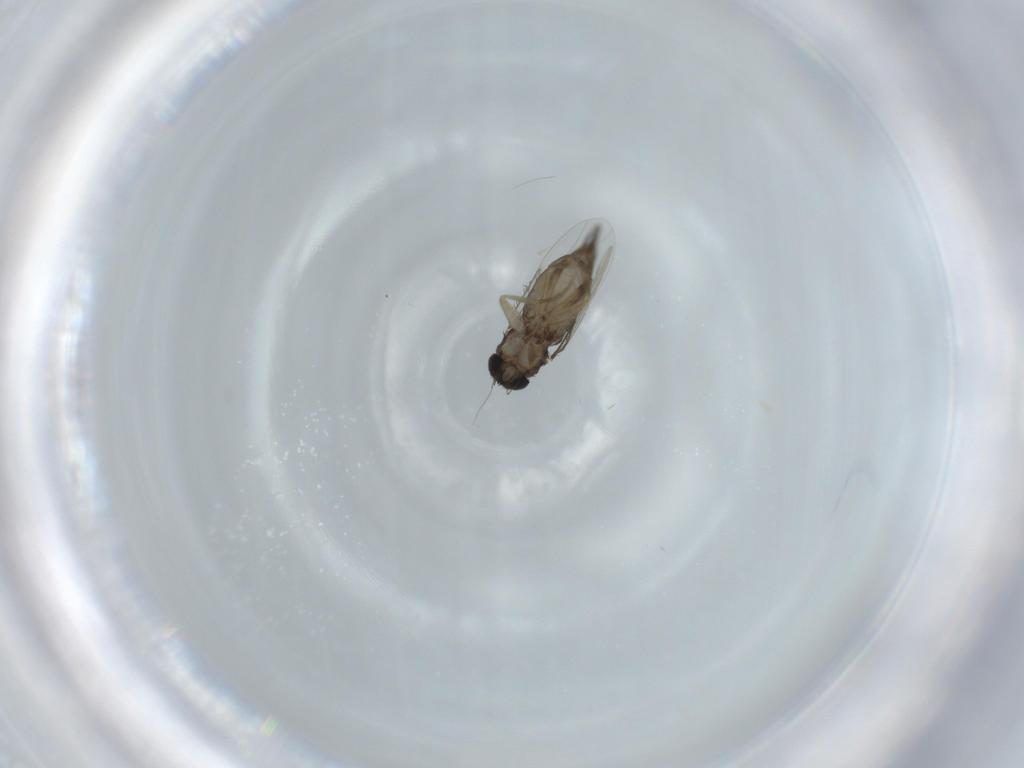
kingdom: Animalia
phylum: Arthropoda
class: Insecta
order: Diptera
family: Phoridae
